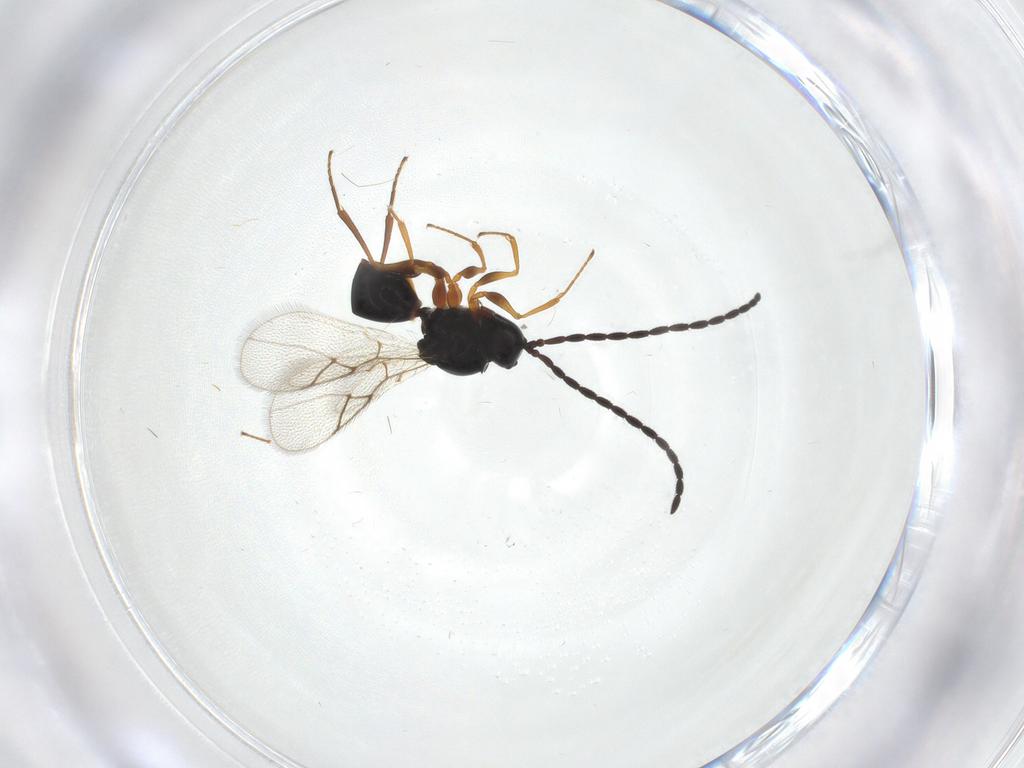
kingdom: Animalia
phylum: Arthropoda
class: Insecta
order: Hymenoptera
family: Figitidae
